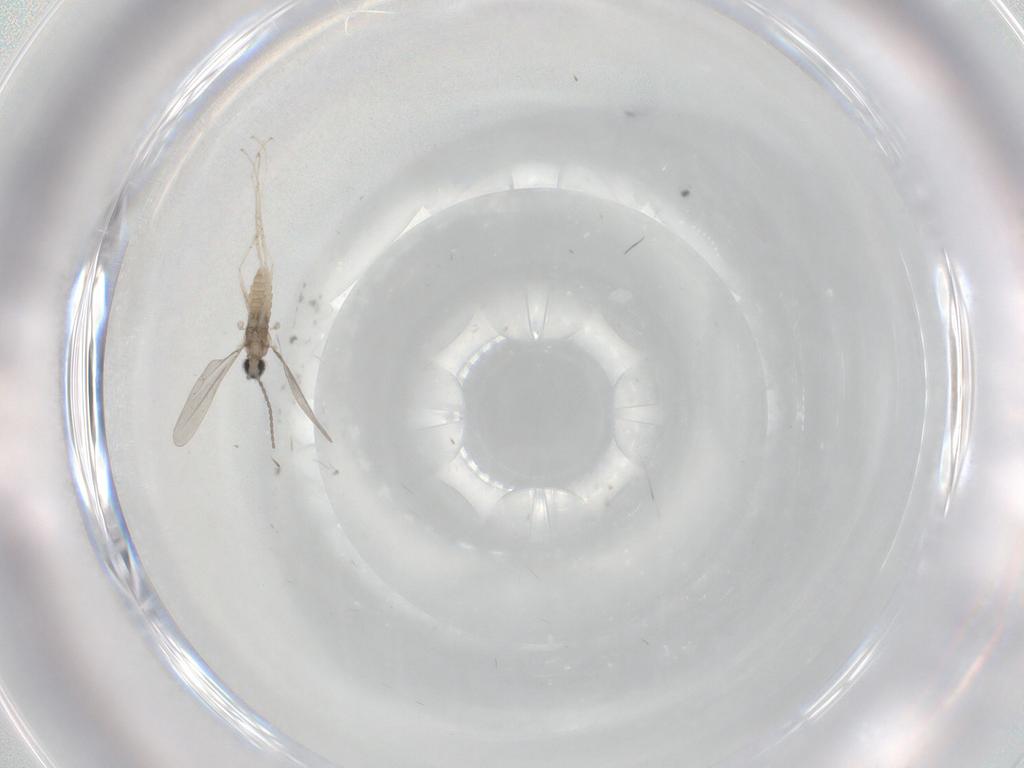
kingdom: Animalia
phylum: Arthropoda
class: Insecta
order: Diptera
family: Cecidomyiidae
